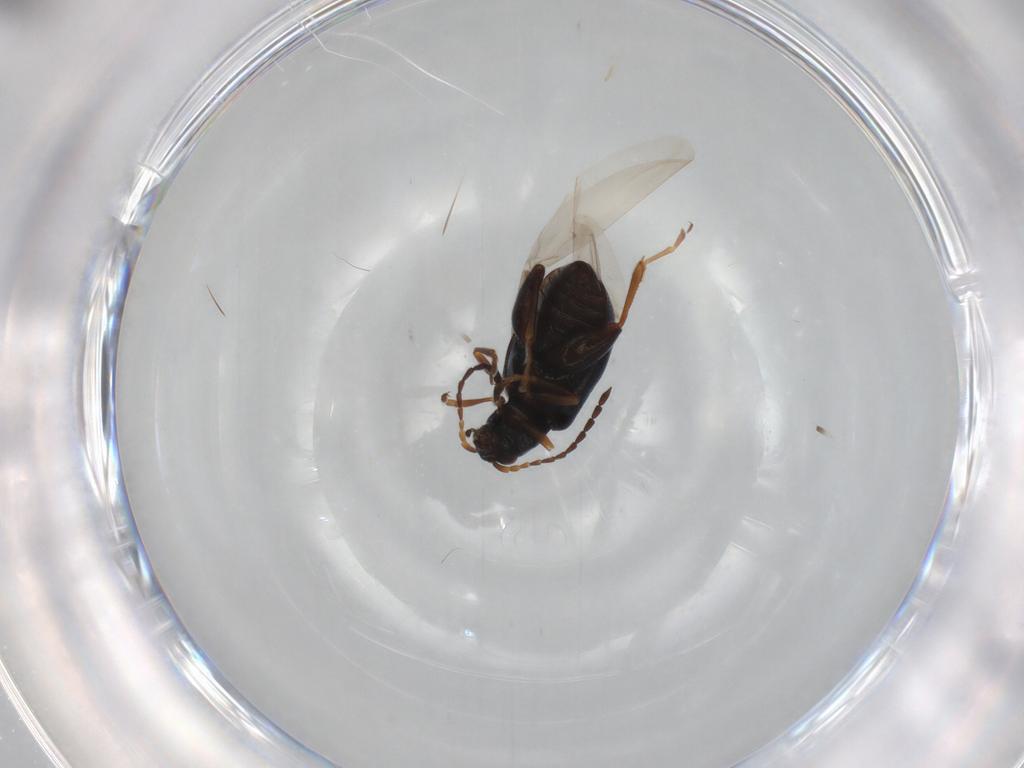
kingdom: Animalia
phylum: Arthropoda
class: Insecta
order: Coleoptera
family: Chrysomelidae
